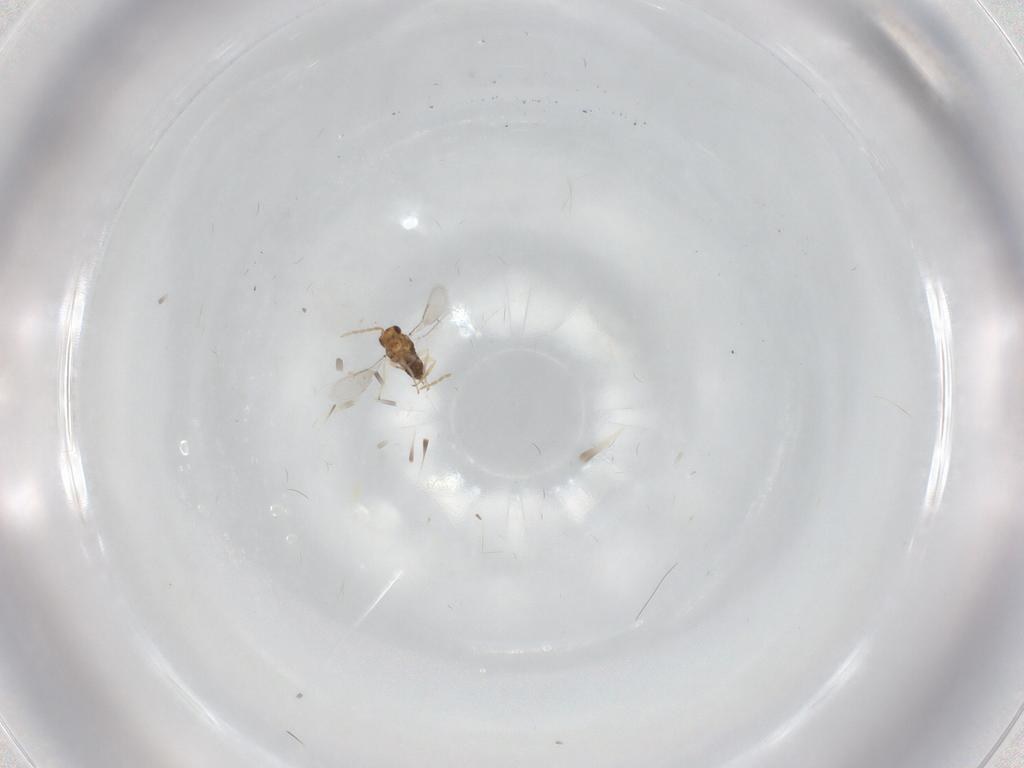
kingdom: Animalia
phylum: Arthropoda
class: Insecta
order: Hymenoptera
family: Aphelinidae
